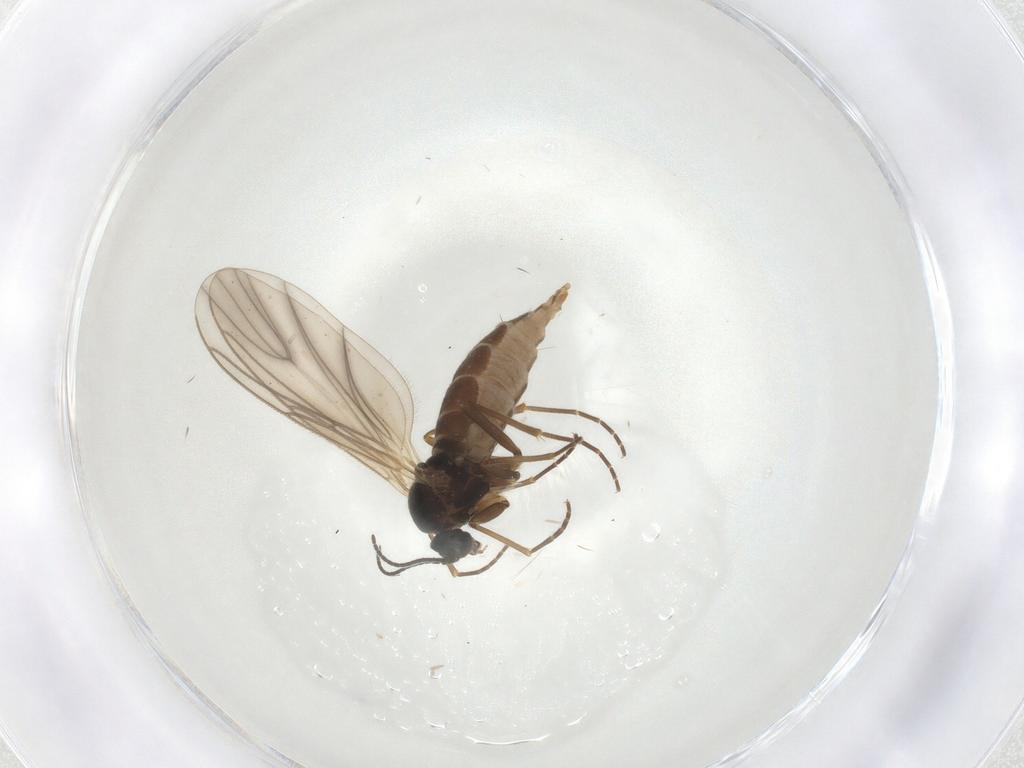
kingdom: Animalia
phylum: Arthropoda
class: Insecta
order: Diptera
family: Sciaridae
